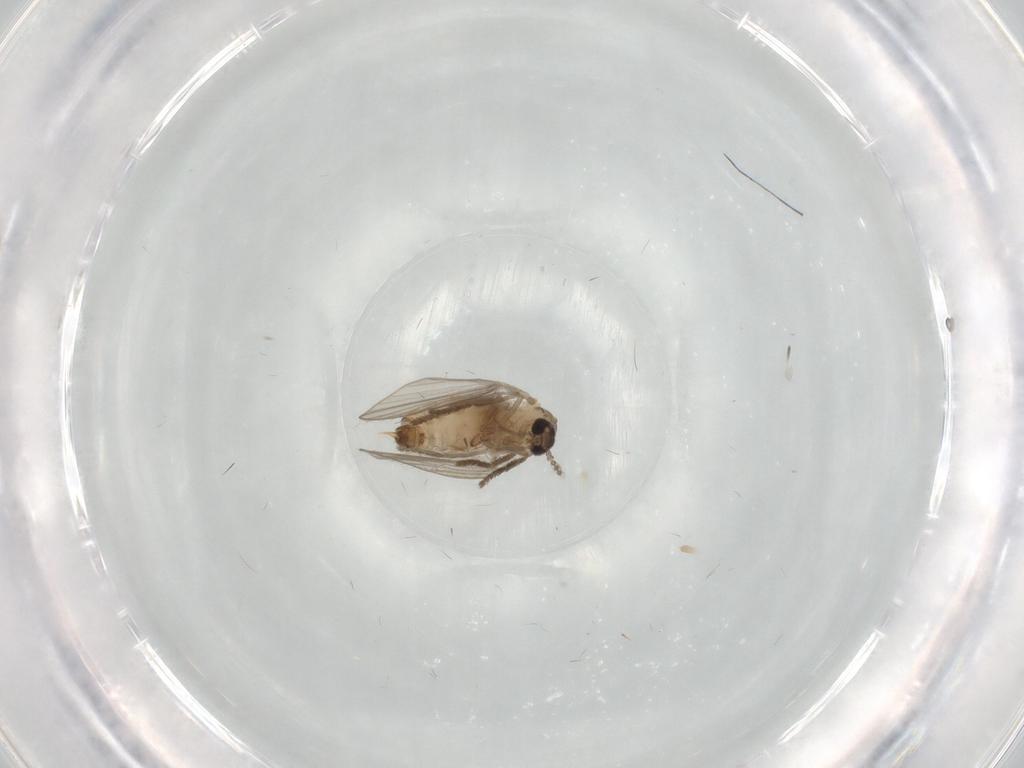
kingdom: Animalia
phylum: Arthropoda
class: Insecta
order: Diptera
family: Psychodidae
